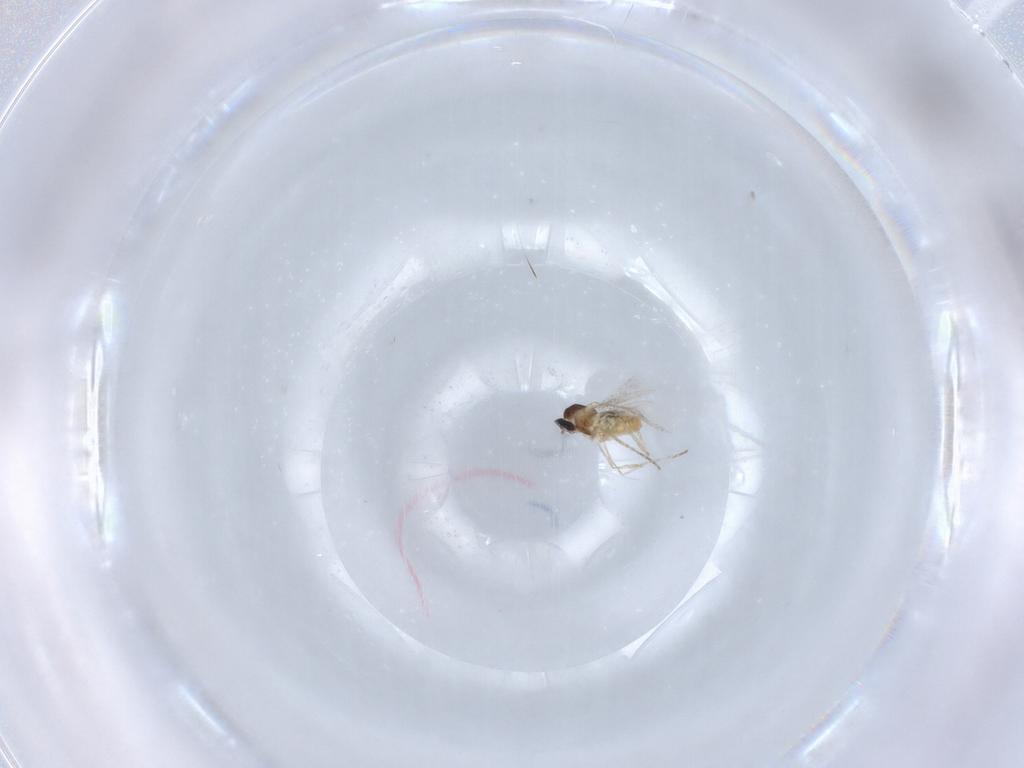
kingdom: Animalia
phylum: Arthropoda
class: Insecta
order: Diptera
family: Cecidomyiidae
